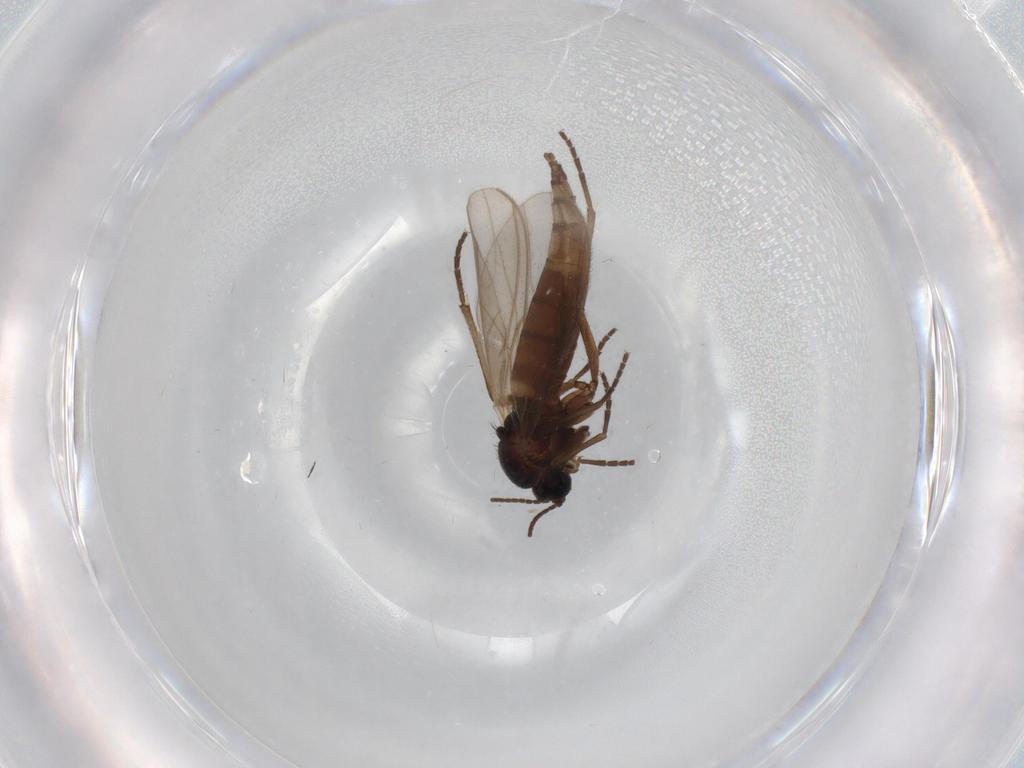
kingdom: Animalia
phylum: Arthropoda
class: Insecta
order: Diptera
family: Sciaridae
